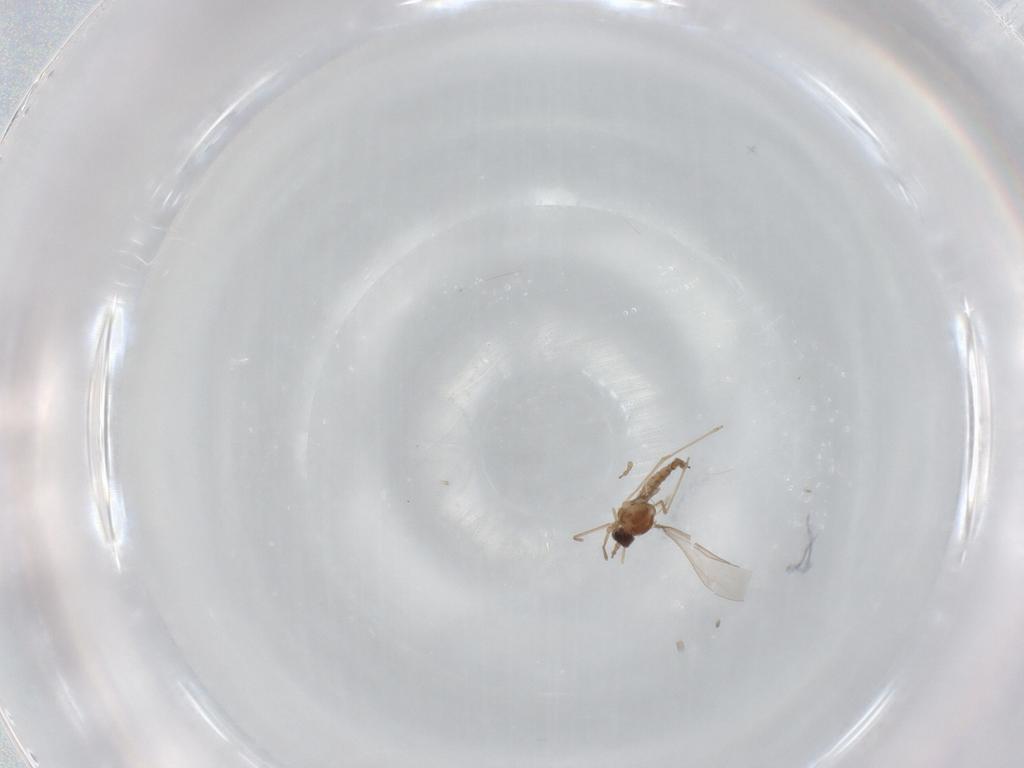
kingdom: Animalia
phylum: Arthropoda
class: Insecta
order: Diptera
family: Cecidomyiidae
